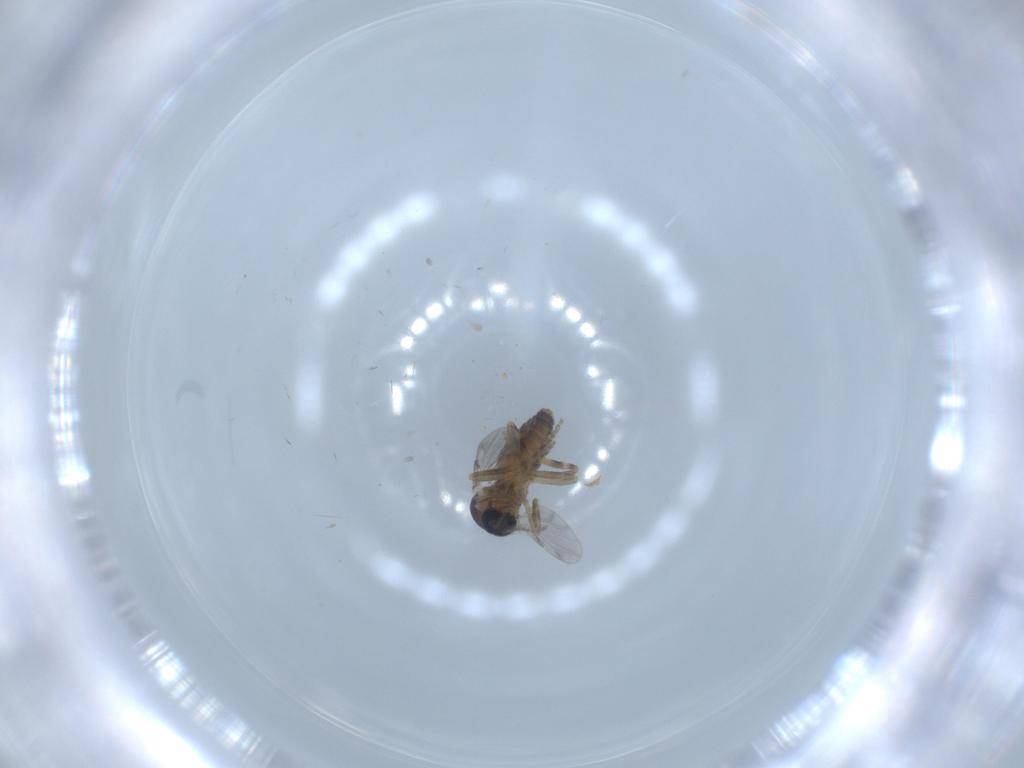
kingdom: Animalia
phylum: Arthropoda
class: Insecta
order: Diptera
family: Ceratopogonidae
